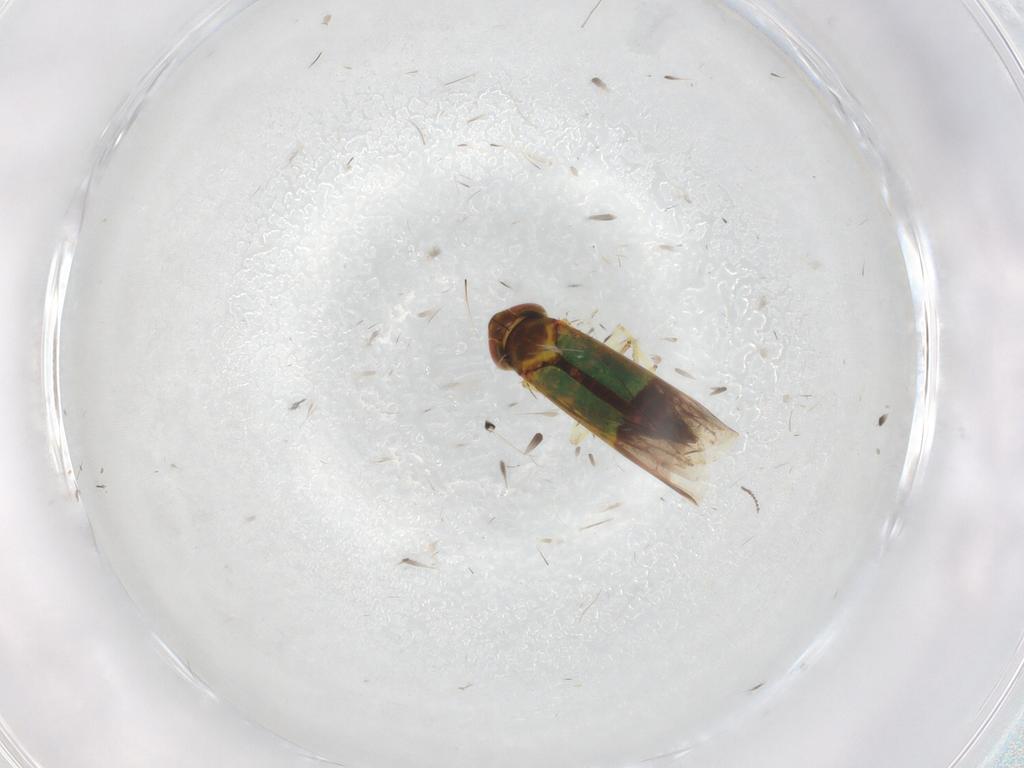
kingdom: Animalia
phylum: Arthropoda
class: Insecta
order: Hemiptera
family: Cicadellidae
